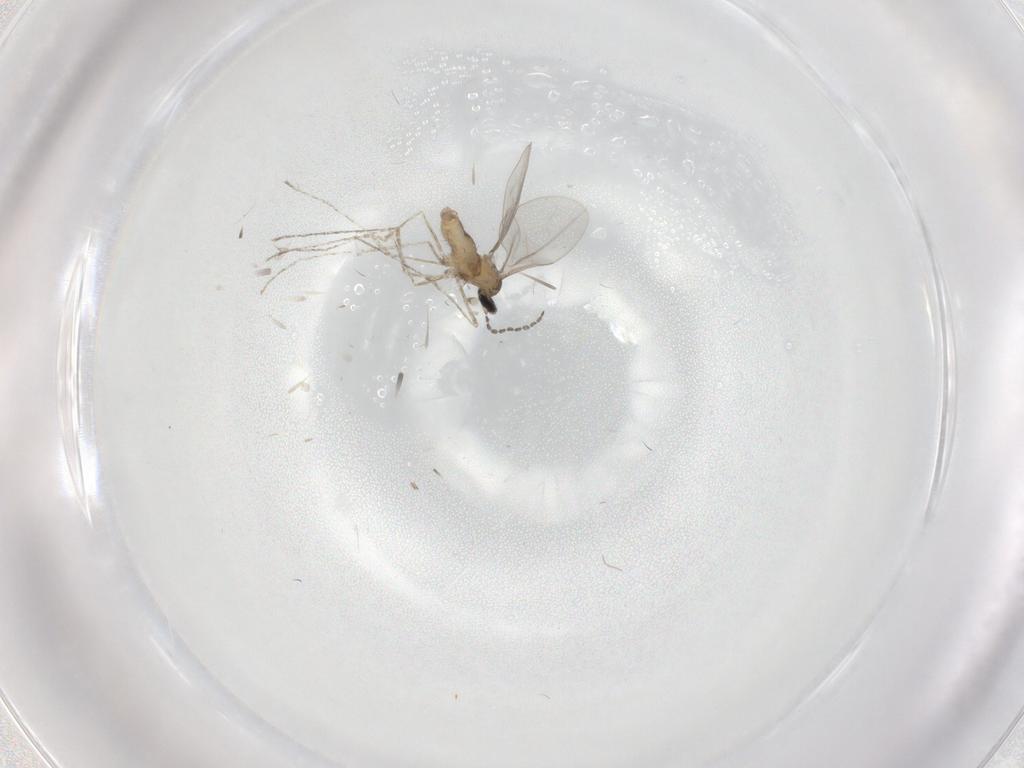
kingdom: Animalia
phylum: Arthropoda
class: Insecta
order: Diptera
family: Cecidomyiidae
